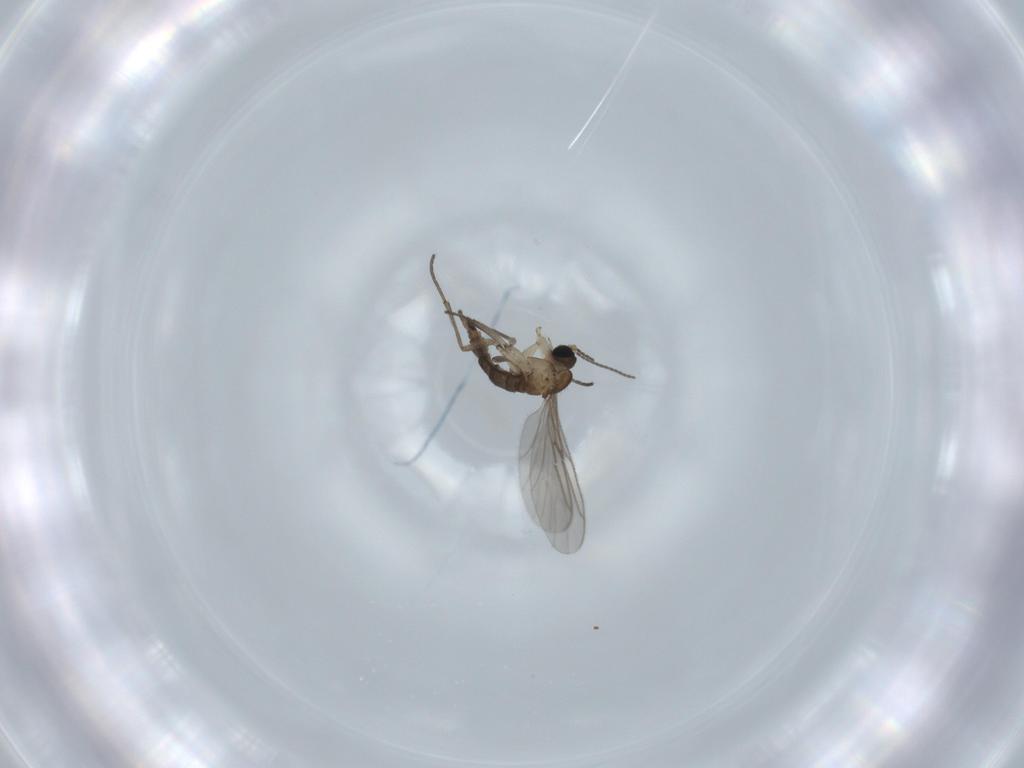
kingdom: Animalia
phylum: Arthropoda
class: Insecta
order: Diptera
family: Sciaridae
